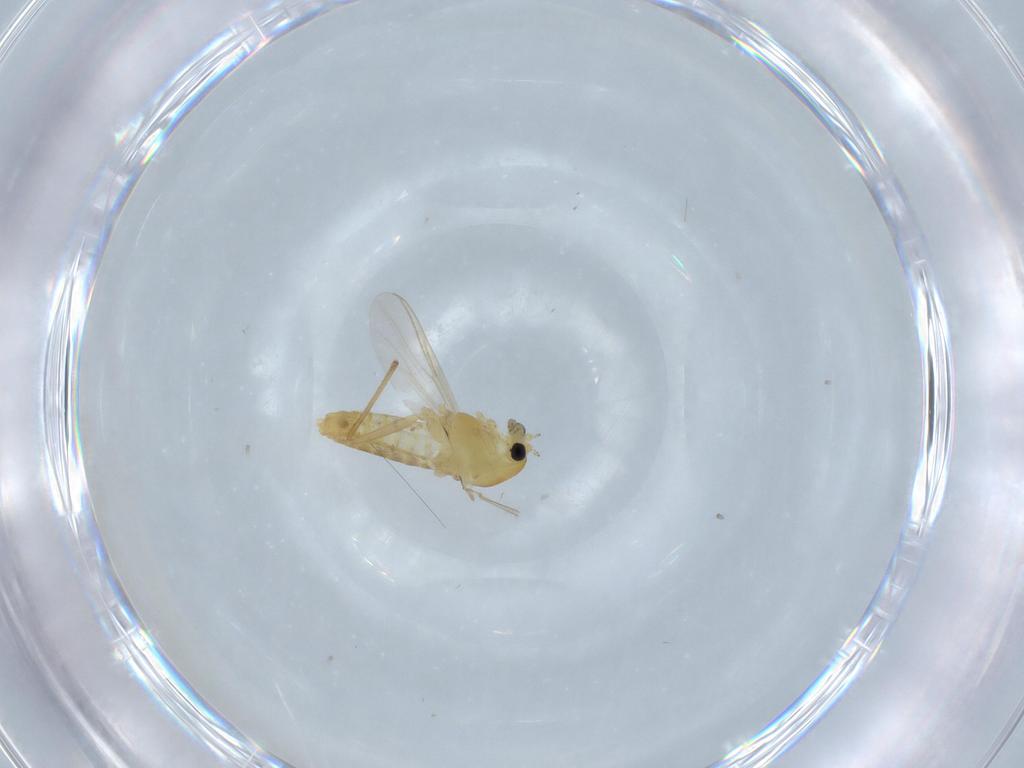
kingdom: Animalia
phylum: Arthropoda
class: Insecta
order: Diptera
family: Chironomidae
